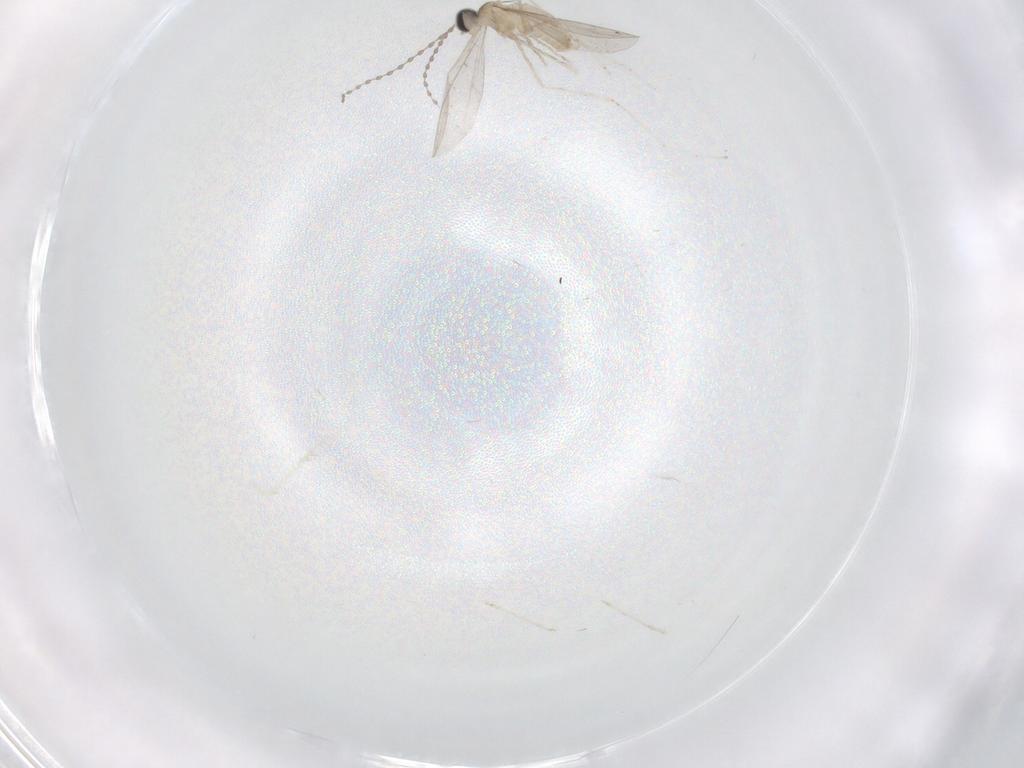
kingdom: Animalia
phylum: Arthropoda
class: Insecta
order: Diptera
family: Cecidomyiidae
